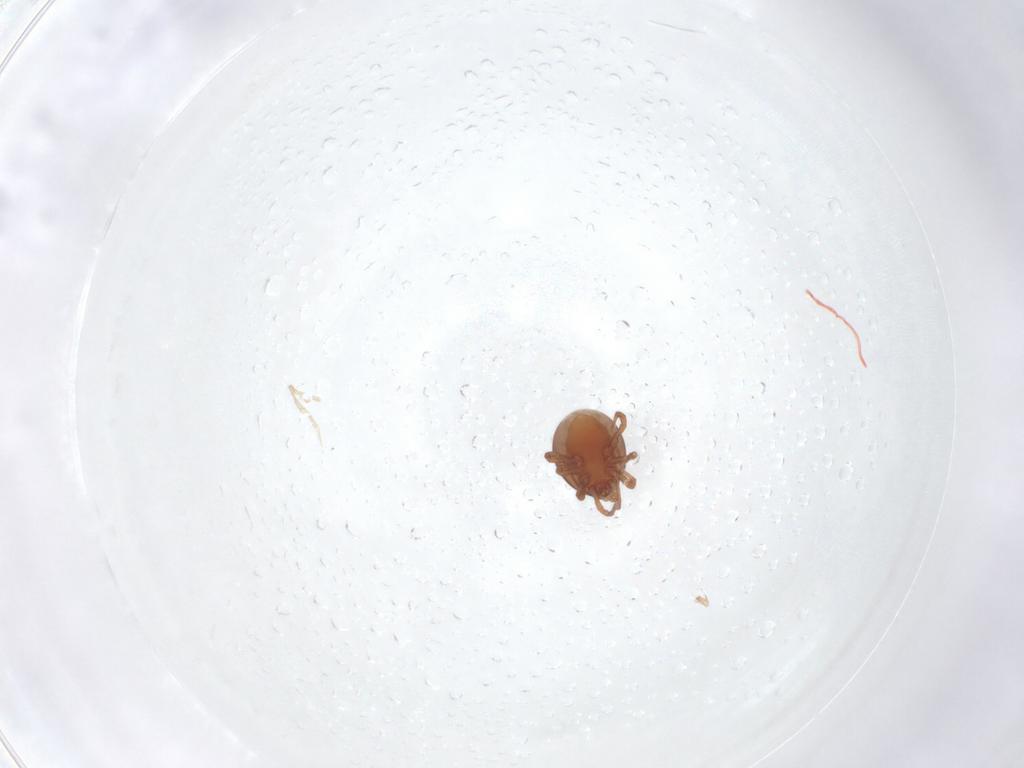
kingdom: Animalia
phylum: Arthropoda
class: Arachnida
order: Mesostigmata
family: Laelapidae
